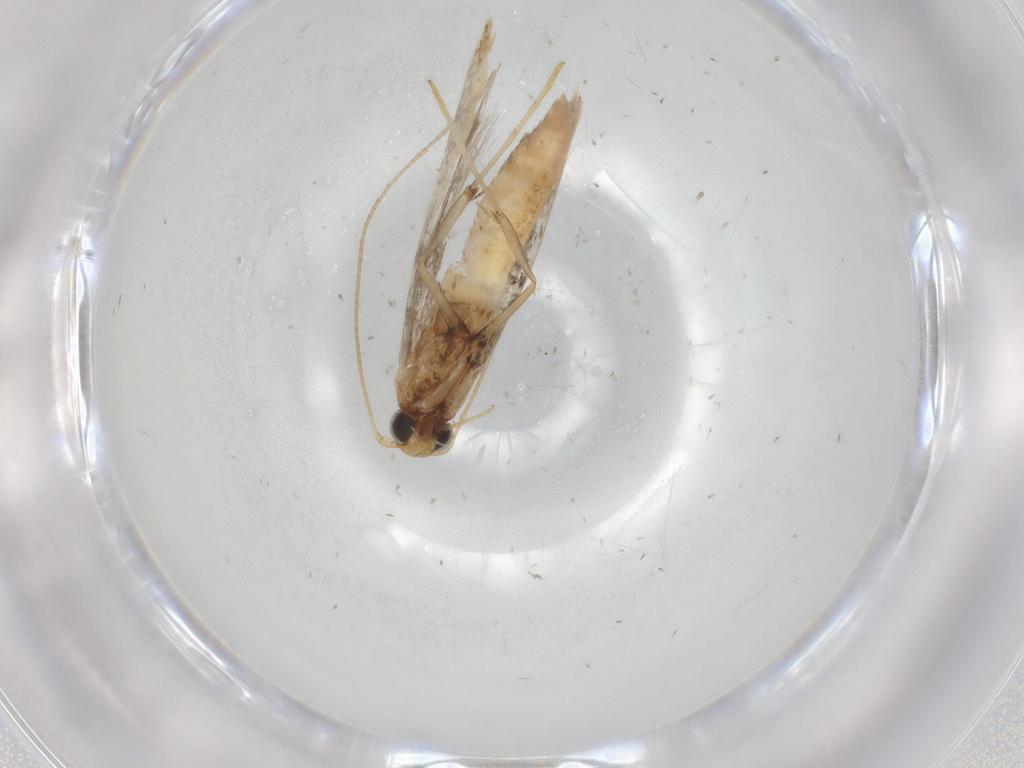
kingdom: Animalia
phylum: Arthropoda
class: Insecta
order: Lepidoptera
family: Gracillariidae
